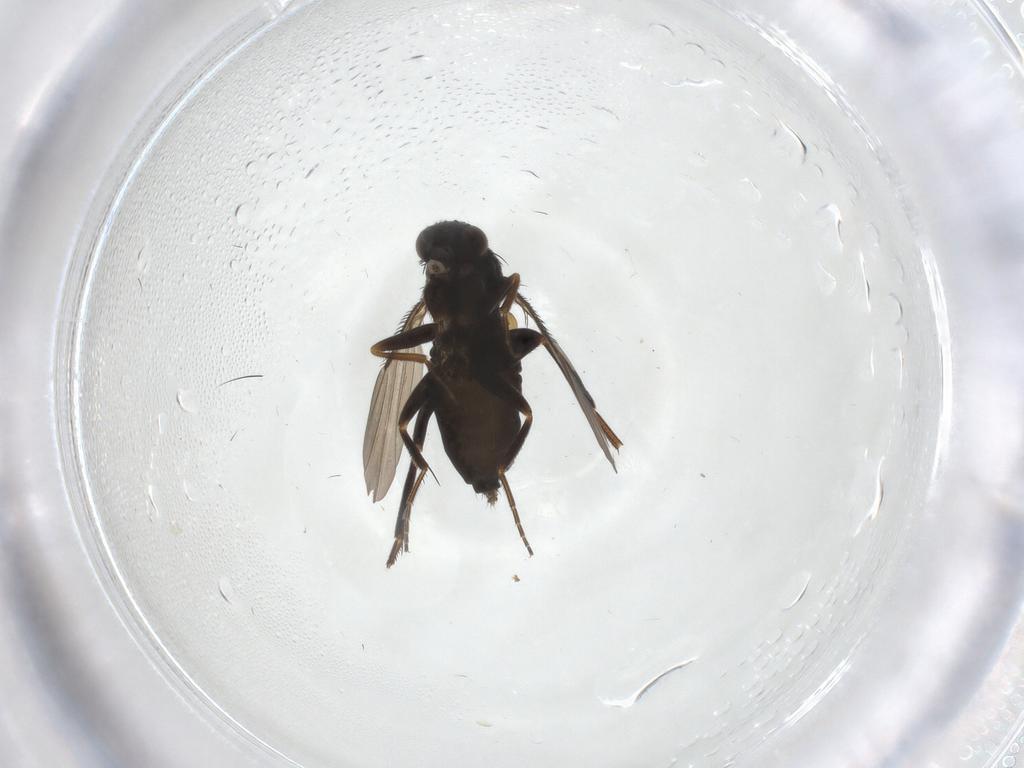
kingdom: Animalia
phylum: Arthropoda
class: Insecta
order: Diptera
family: Phoridae
